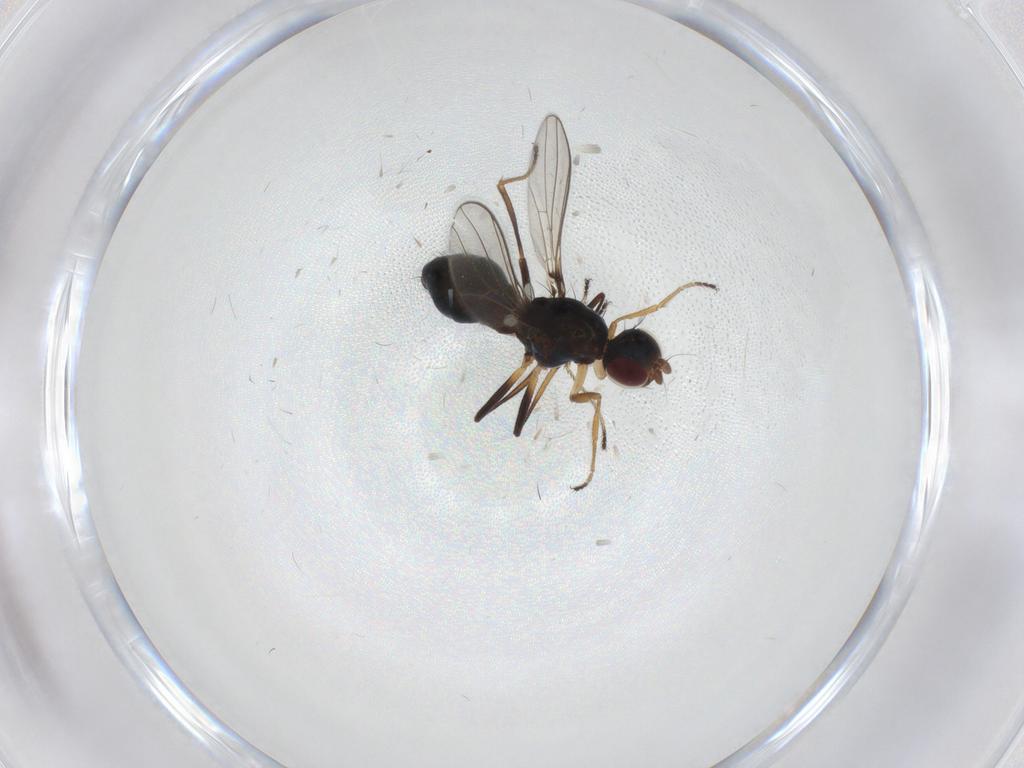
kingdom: Animalia
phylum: Arthropoda
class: Insecta
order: Diptera
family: Sepsidae
